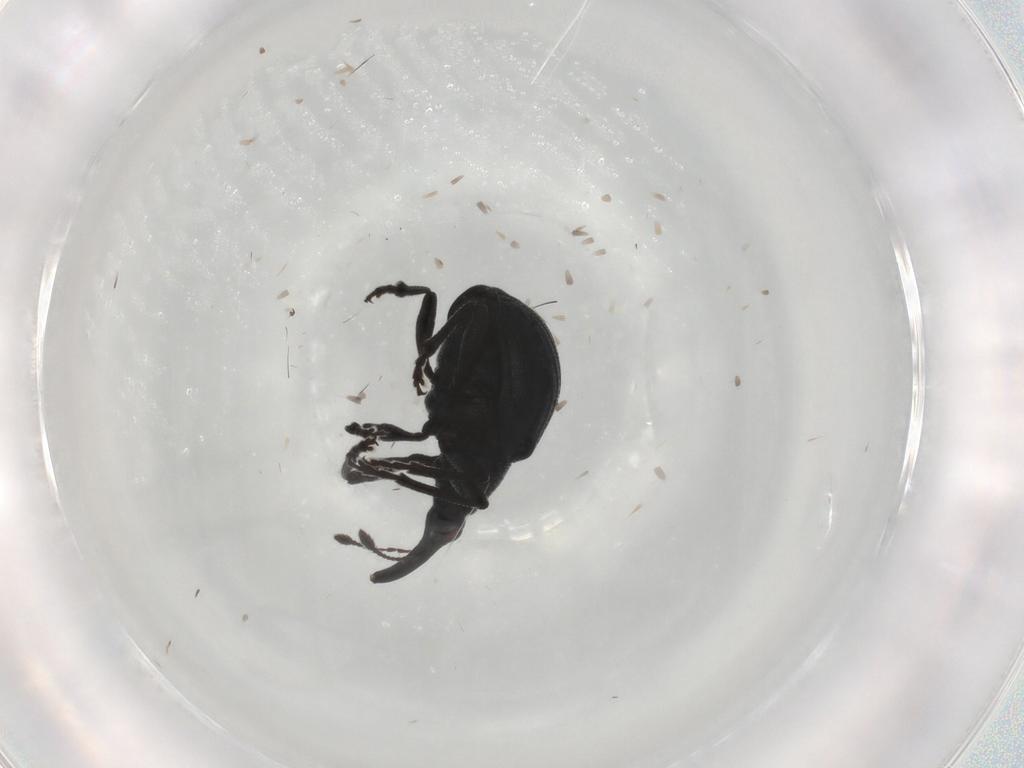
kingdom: Animalia
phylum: Arthropoda
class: Insecta
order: Coleoptera
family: Brentidae
